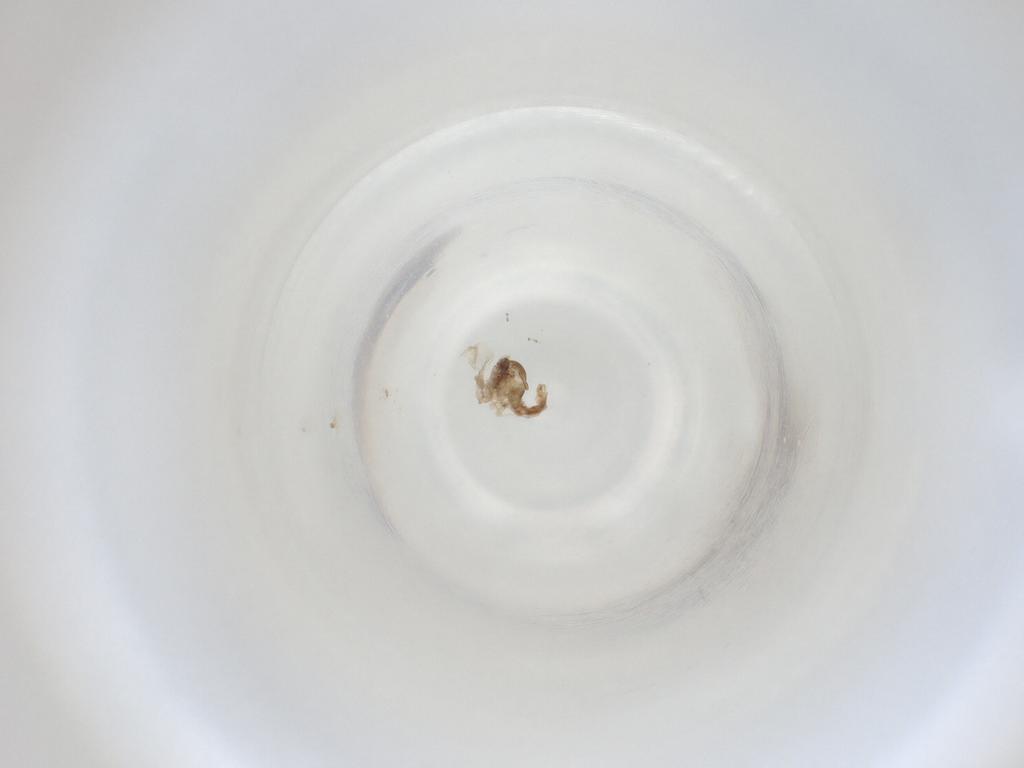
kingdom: Animalia
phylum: Arthropoda
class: Insecta
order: Diptera
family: Cecidomyiidae
